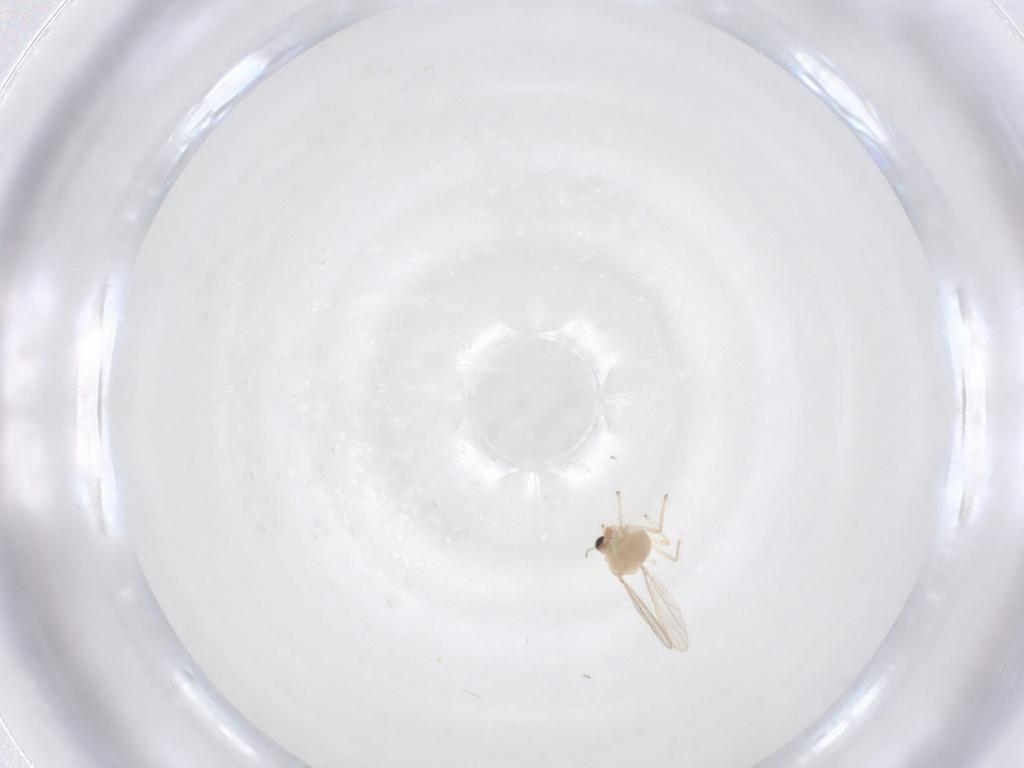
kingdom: Animalia
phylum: Arthropoda
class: Insecta
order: Diptera
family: Chironomidae
